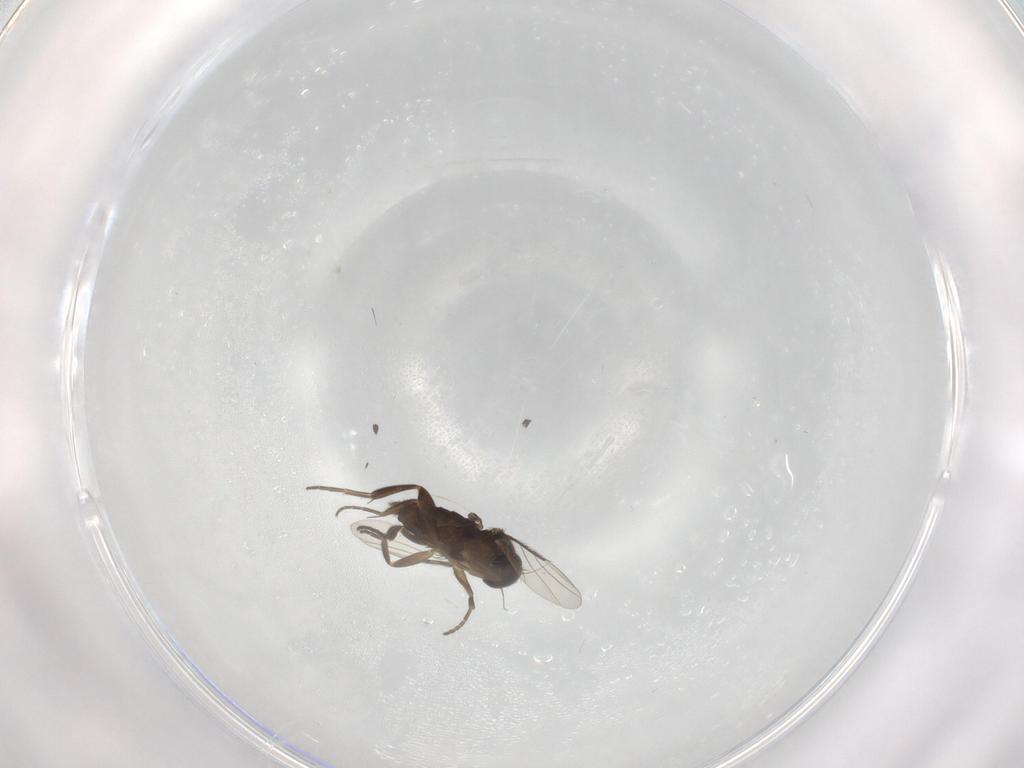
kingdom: Animalia
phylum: Arthropoda
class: Insecta
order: Diptera
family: Phoridae
